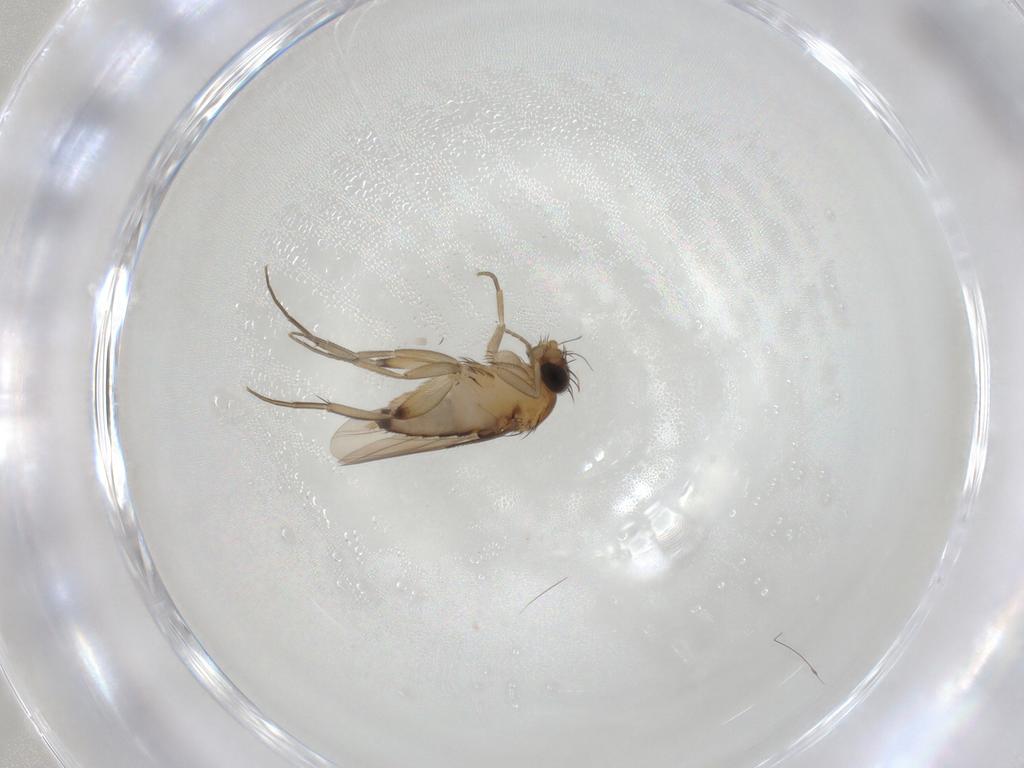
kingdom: Animalia
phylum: Arthropoda
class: Insecta
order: Diptera
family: Phoridae
